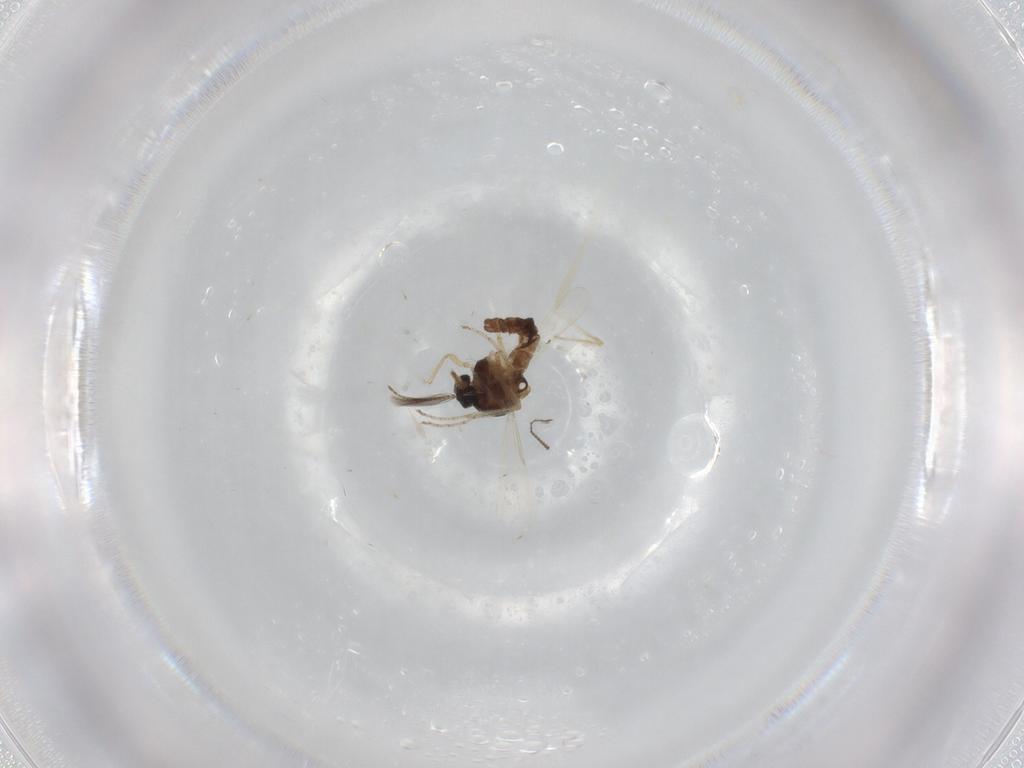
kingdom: Animalia
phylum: Arthropoda
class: Insecta
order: Diptera
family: Ceratopogonidae
